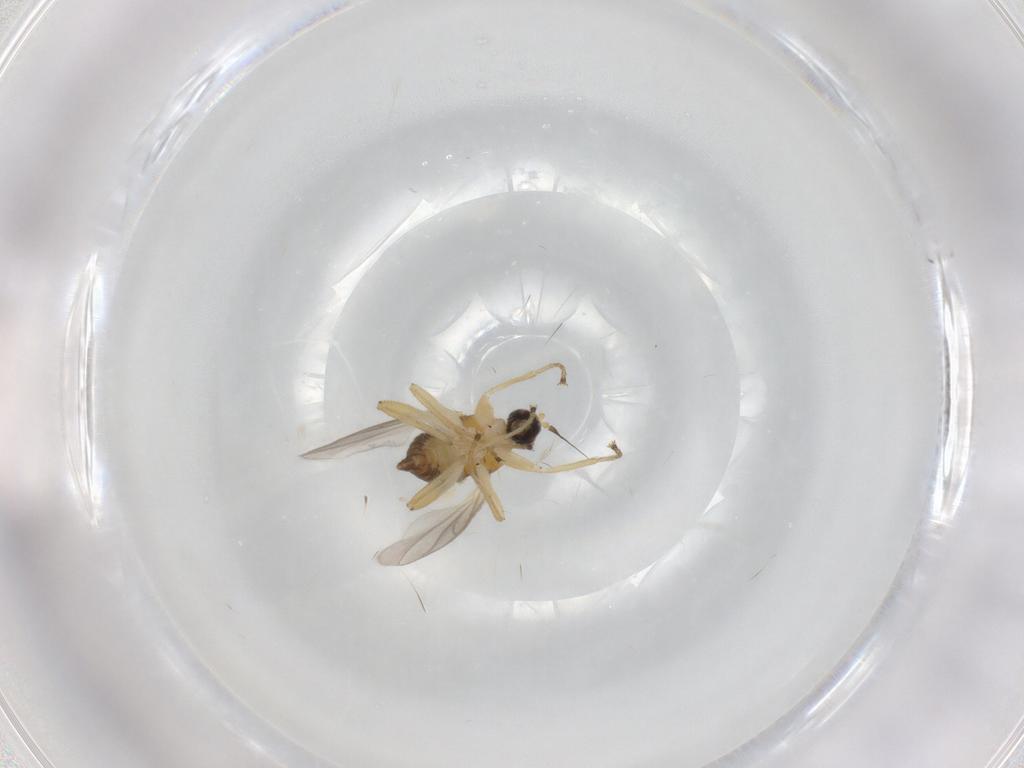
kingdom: Animalia
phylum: Arthropoda
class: Insecta
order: Diptera
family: Hybotidae
